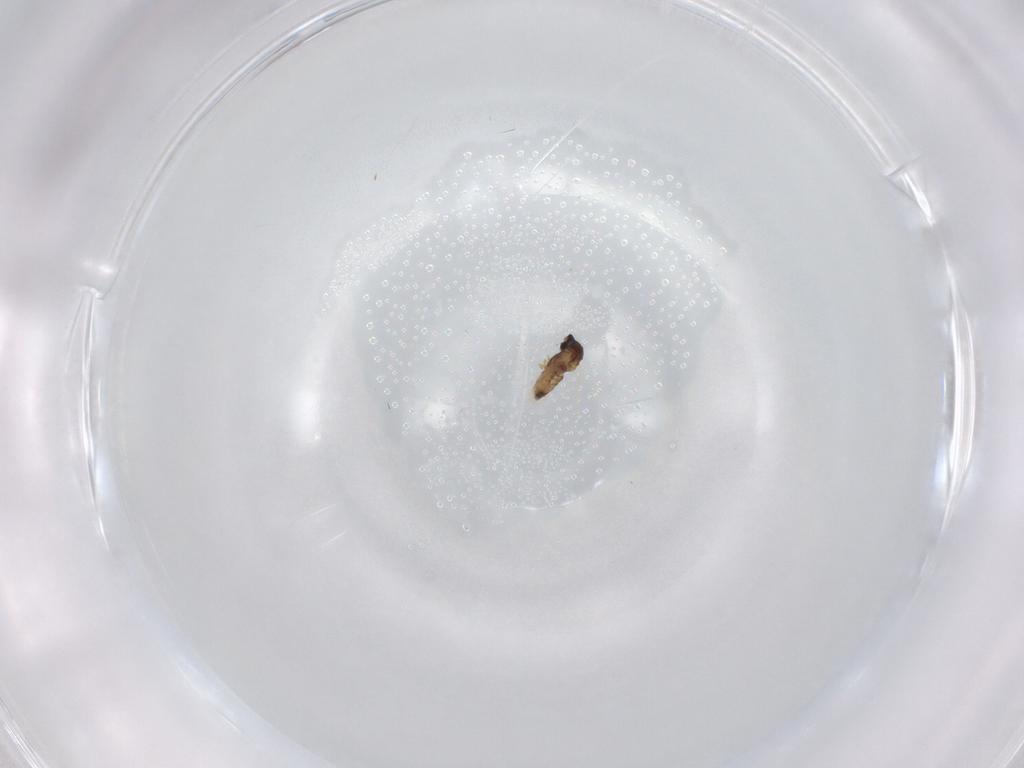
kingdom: Animalia
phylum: Arthropoda
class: Insecta
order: Diptera
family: Cecidomyiidae
